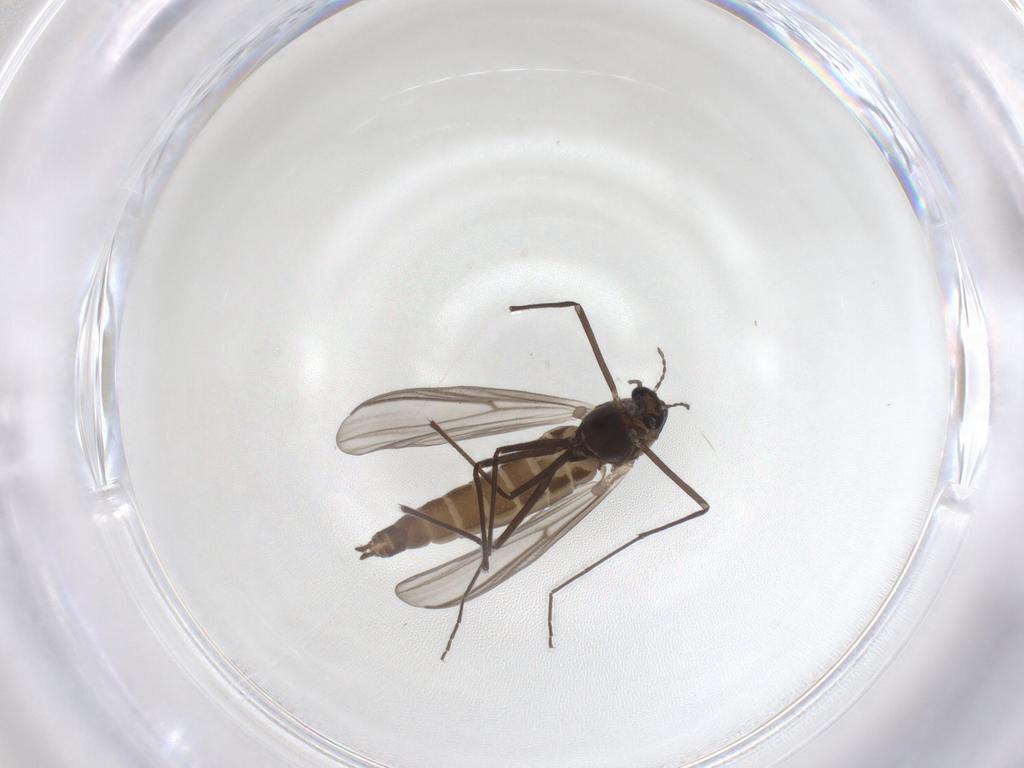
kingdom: Animalia
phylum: Arthropoda
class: Insecta
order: Diptera
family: Chironomidae
